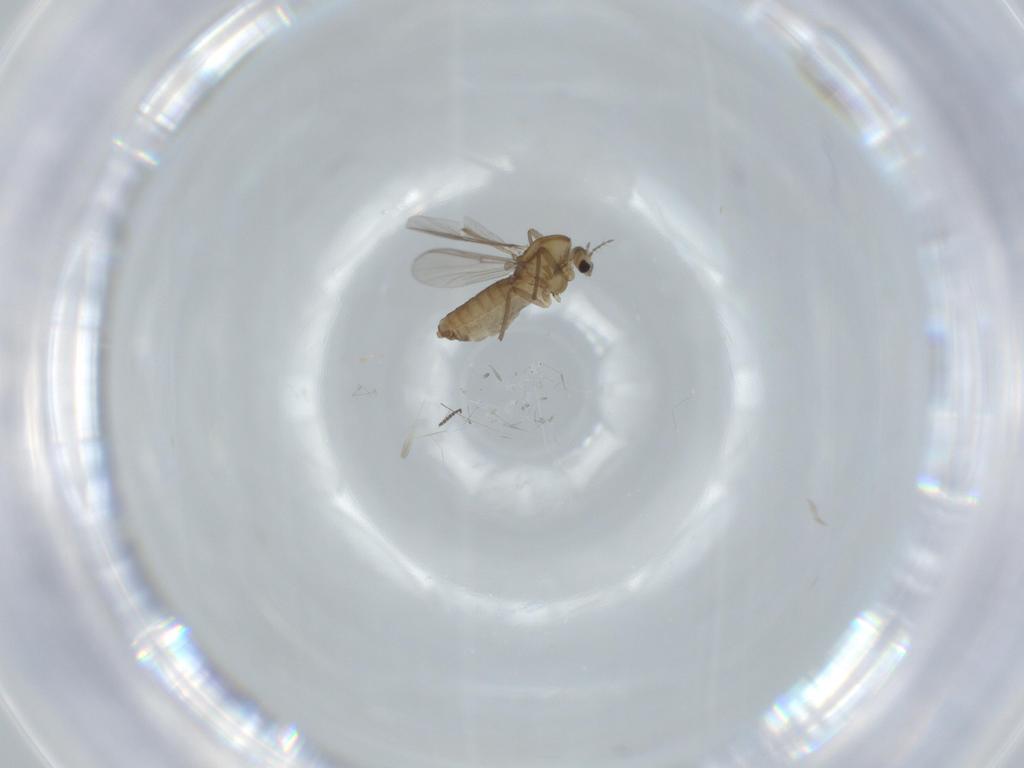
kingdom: Animalia
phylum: Arthropoda
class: Insecta
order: Diptera
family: Chironomidae
